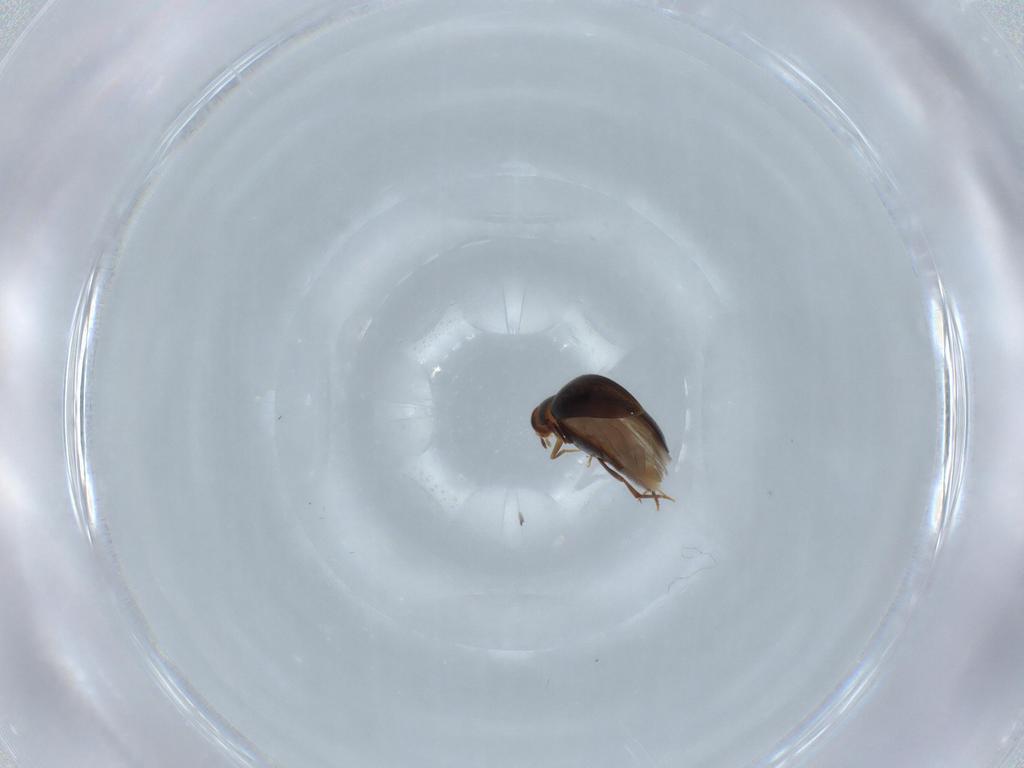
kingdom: Animalia
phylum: Arthropoda
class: Insecta
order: Coleoptera
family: Melandryidae
